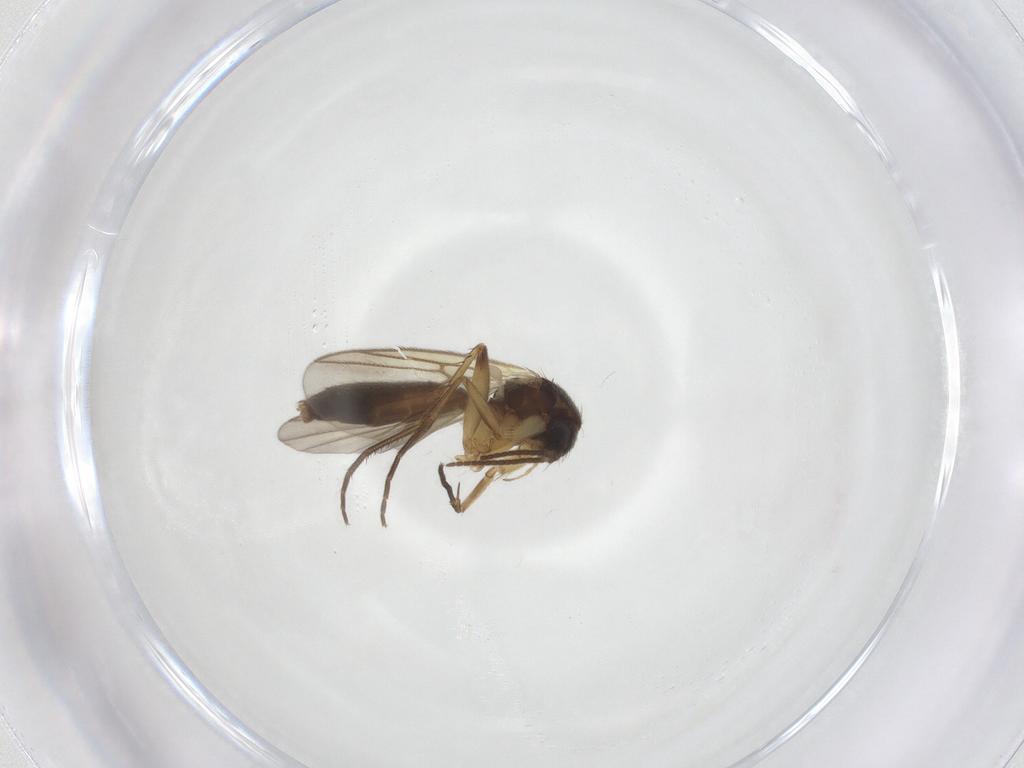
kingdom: Animalia
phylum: Arthropoda
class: Insecta
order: Diptera
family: Mycetophilidae
